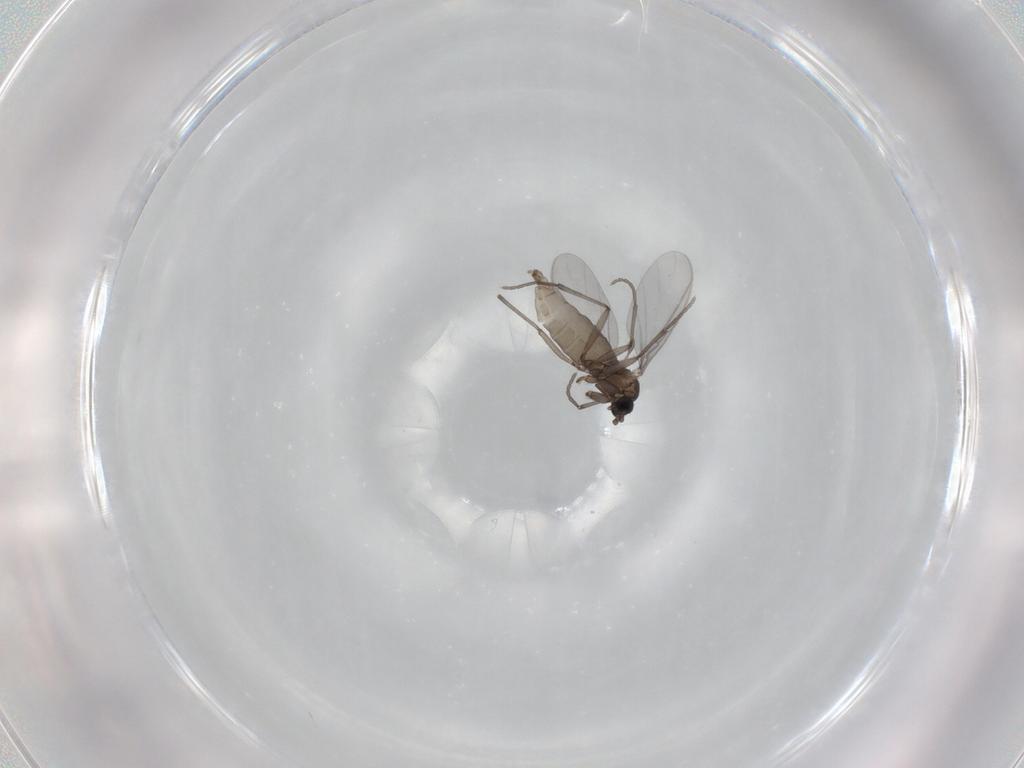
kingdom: Animalia
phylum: Arthropoda
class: Insecta
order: Diptera
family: Sciaridae
